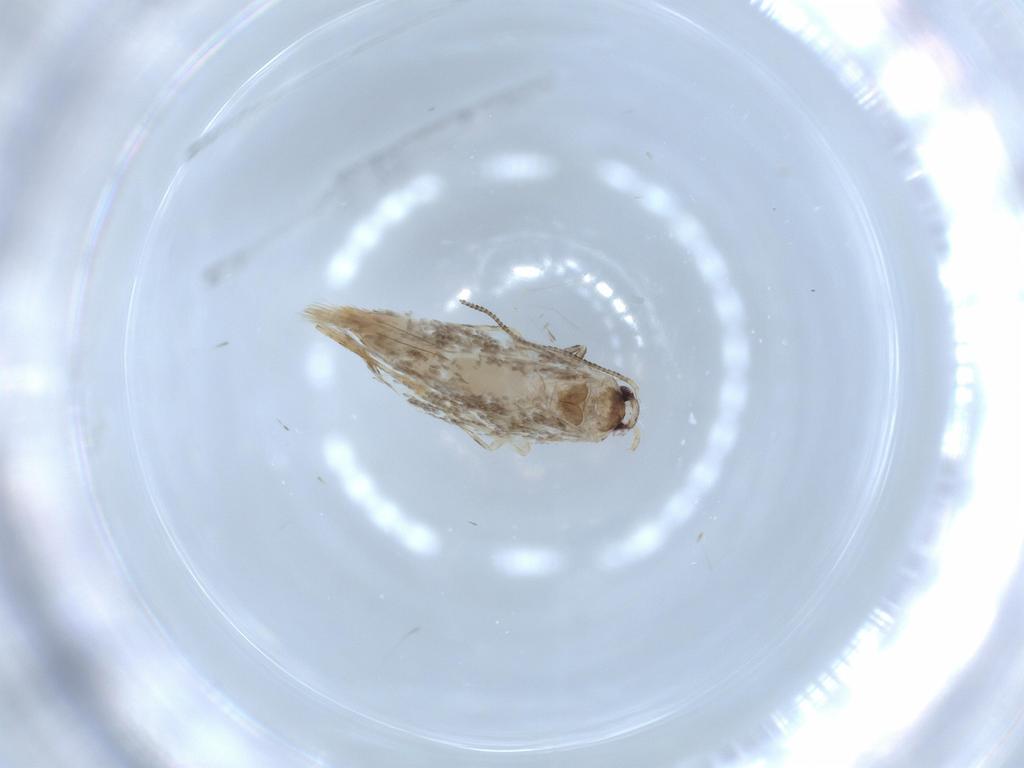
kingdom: Animalia
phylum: Arthropoda
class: Insecta
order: Lepidoptera
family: Tineidae
